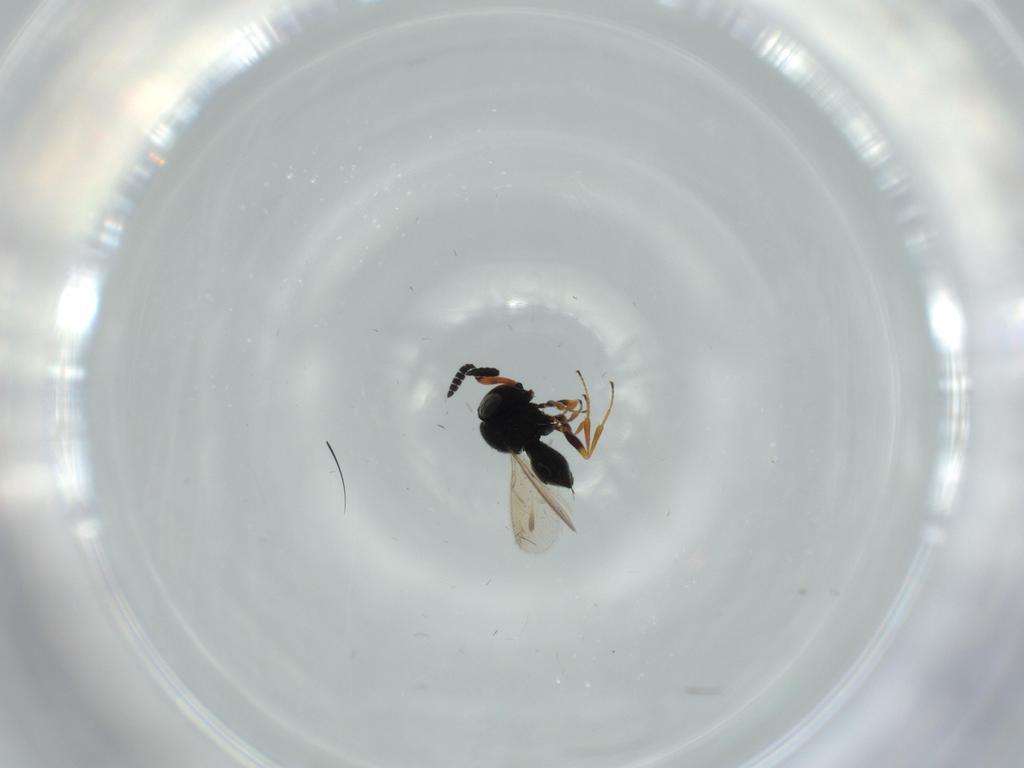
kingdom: Animalia
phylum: Arthropoda
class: Insecta
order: Hymenoptera
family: Scelionidae
